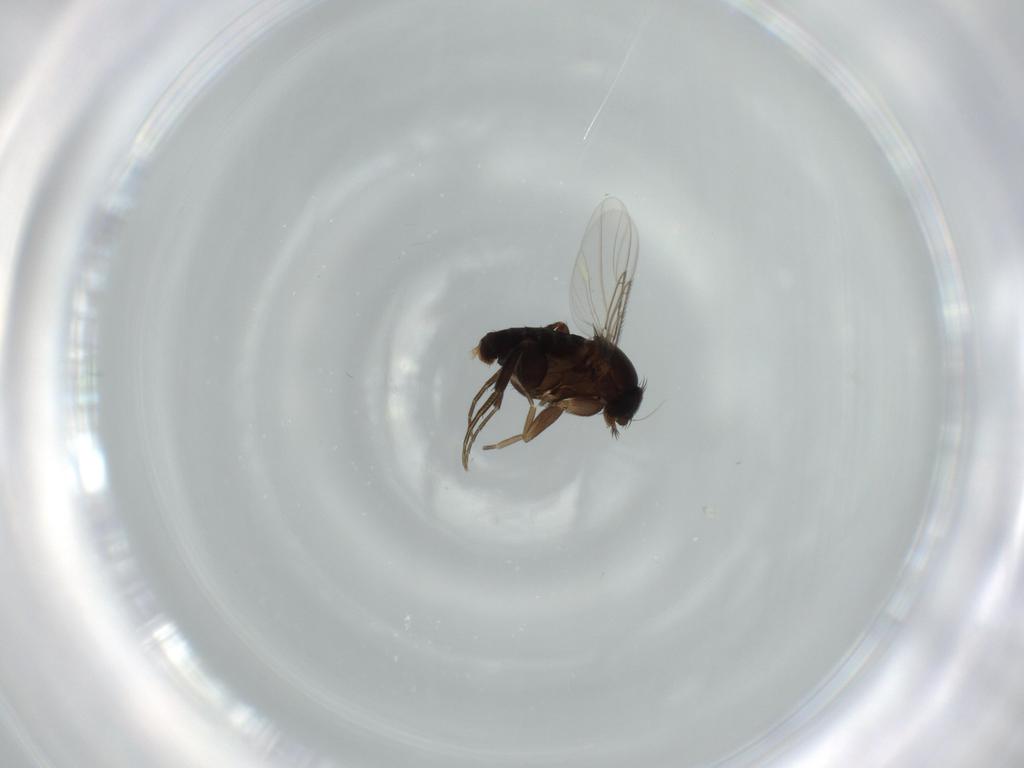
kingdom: Animalia
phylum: Arthropoda
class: Insecta
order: Diptera
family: Phoridae
